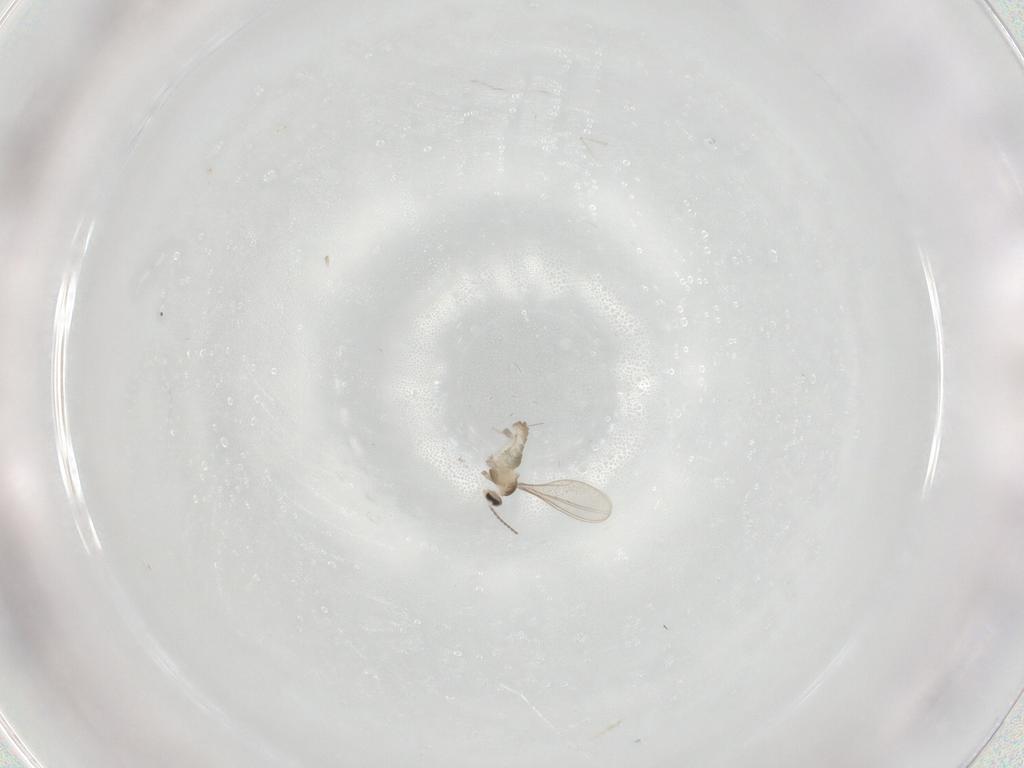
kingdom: Animalia
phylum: Arthropoda
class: Insecta
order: Diptera
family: Cecidomyiidae
